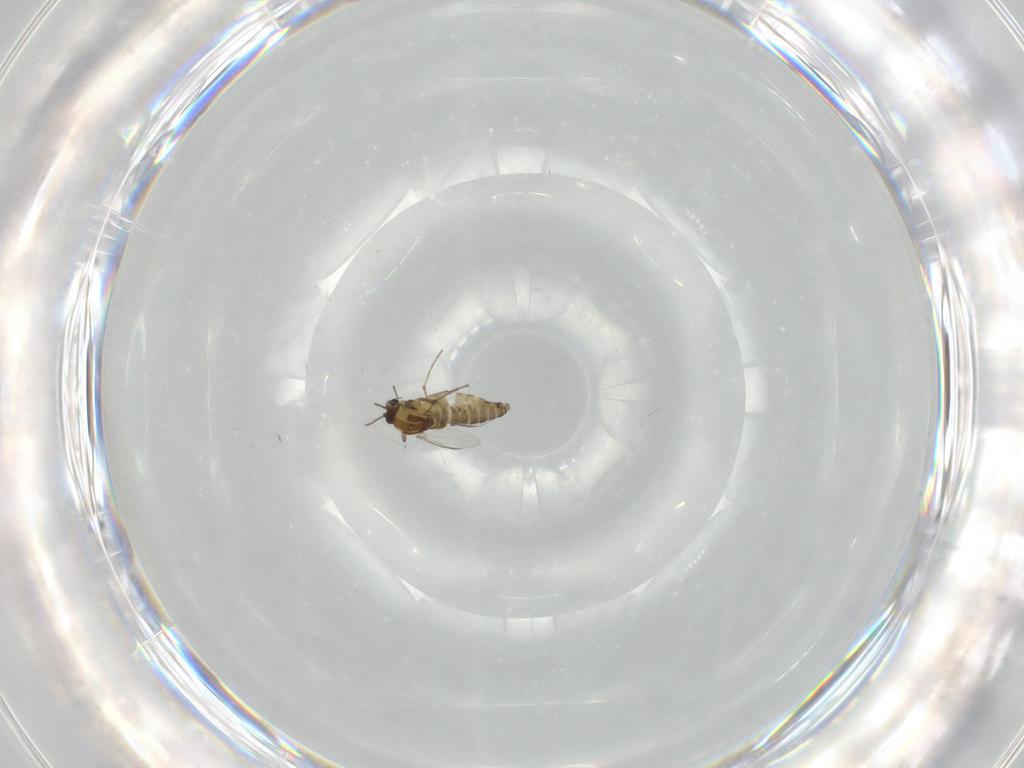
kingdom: Animalia
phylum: Arthropoda
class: Insecta
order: Diptera
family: Chironomidae
